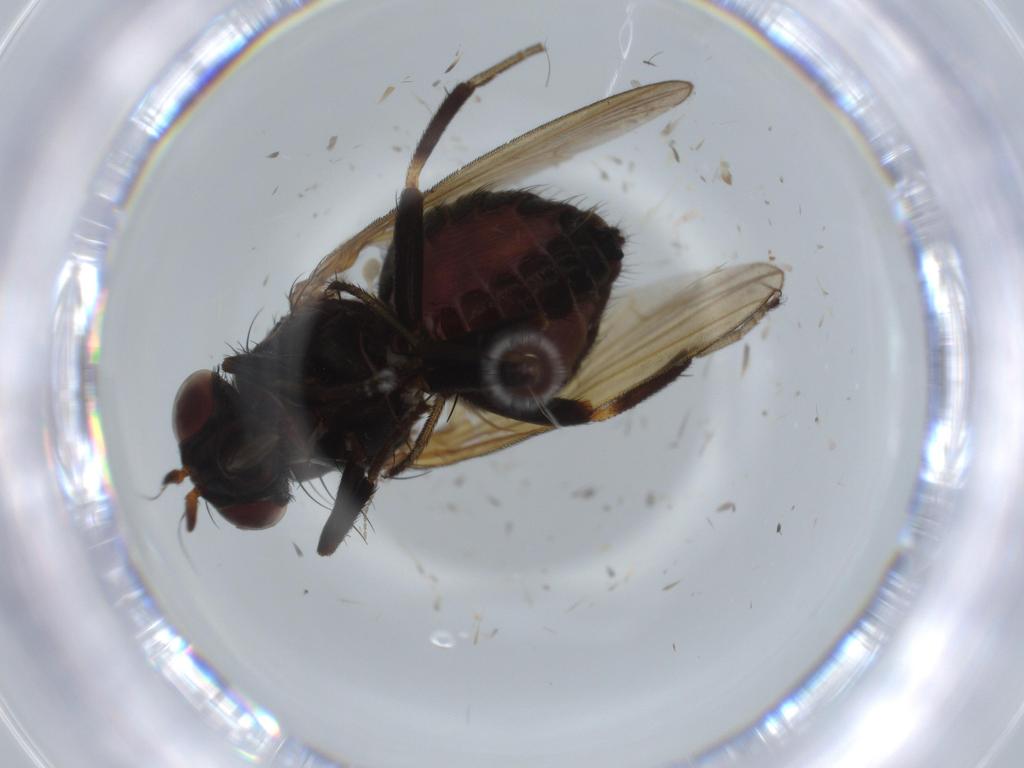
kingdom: Animalia
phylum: Arthropoda
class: Insecta
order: Diptera
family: Lauxaniidae
